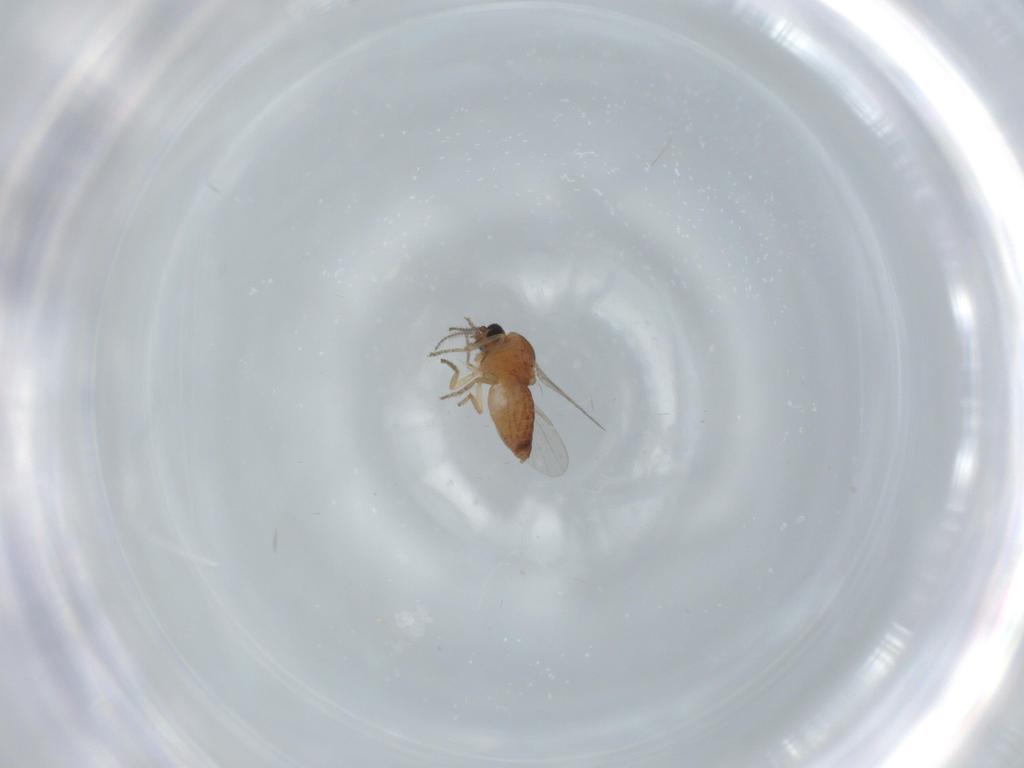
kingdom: Animalia
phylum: Arthropoda
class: Insecta
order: Diptera
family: Ceratopogonidae
